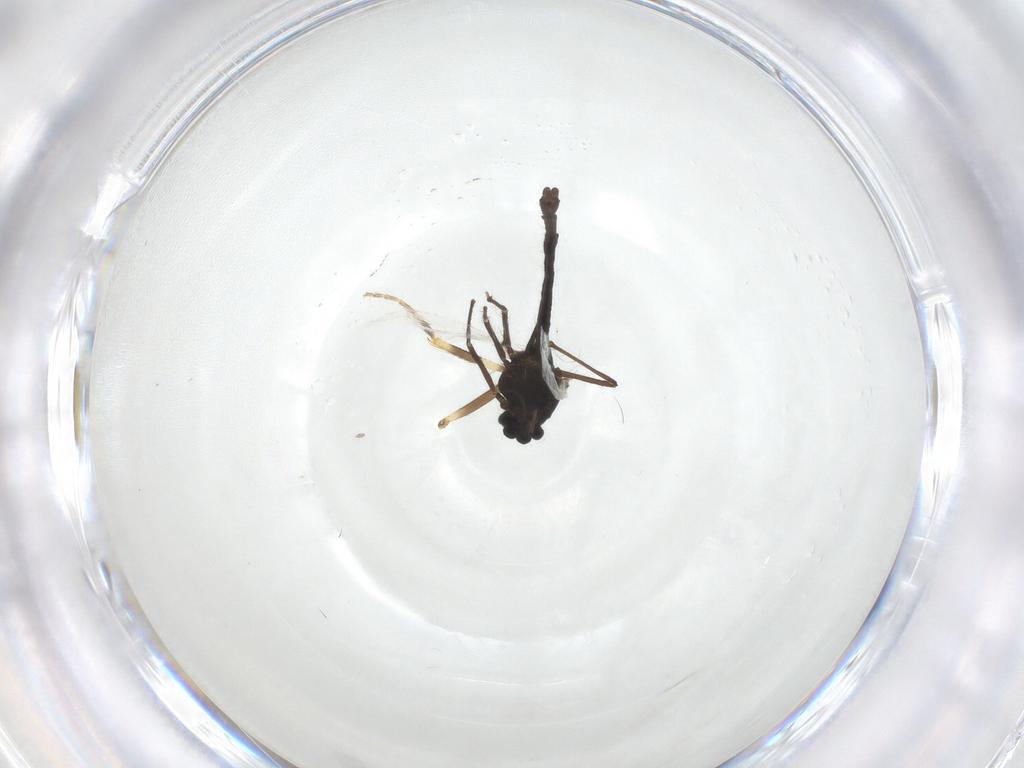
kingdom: Animalia
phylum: Arthropoda
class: Insecta
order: Diptera
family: Chironomidae
